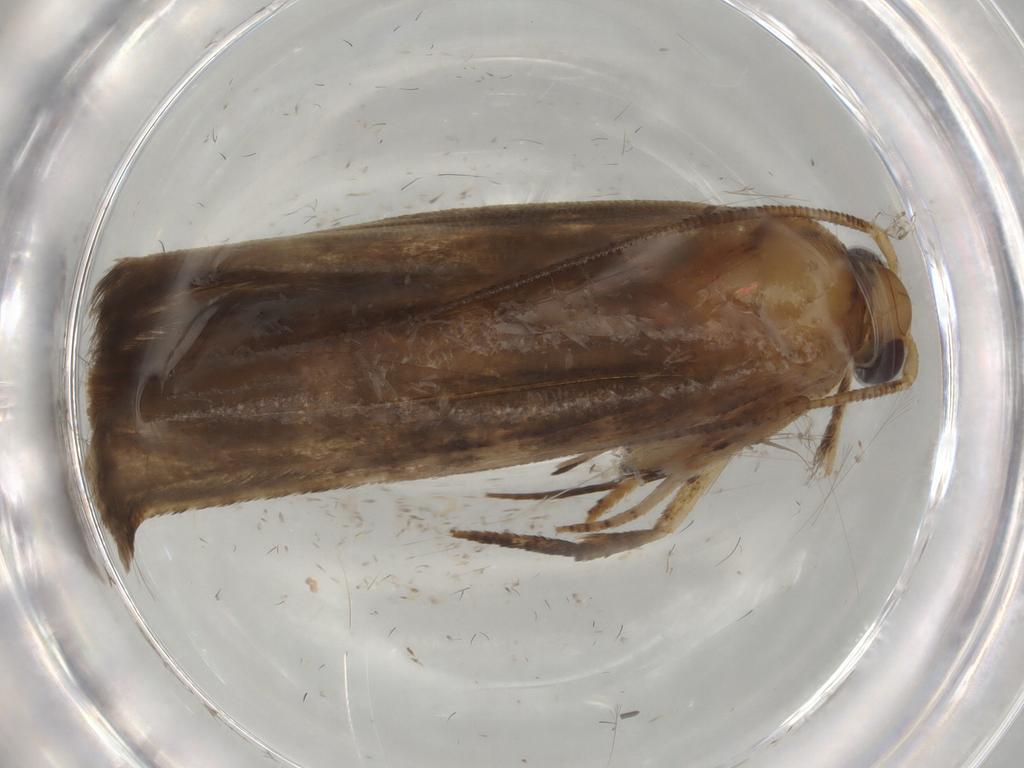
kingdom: Animalia
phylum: Arthropoda
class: Insecta
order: Lepidoptera
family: Yponomeutidae
